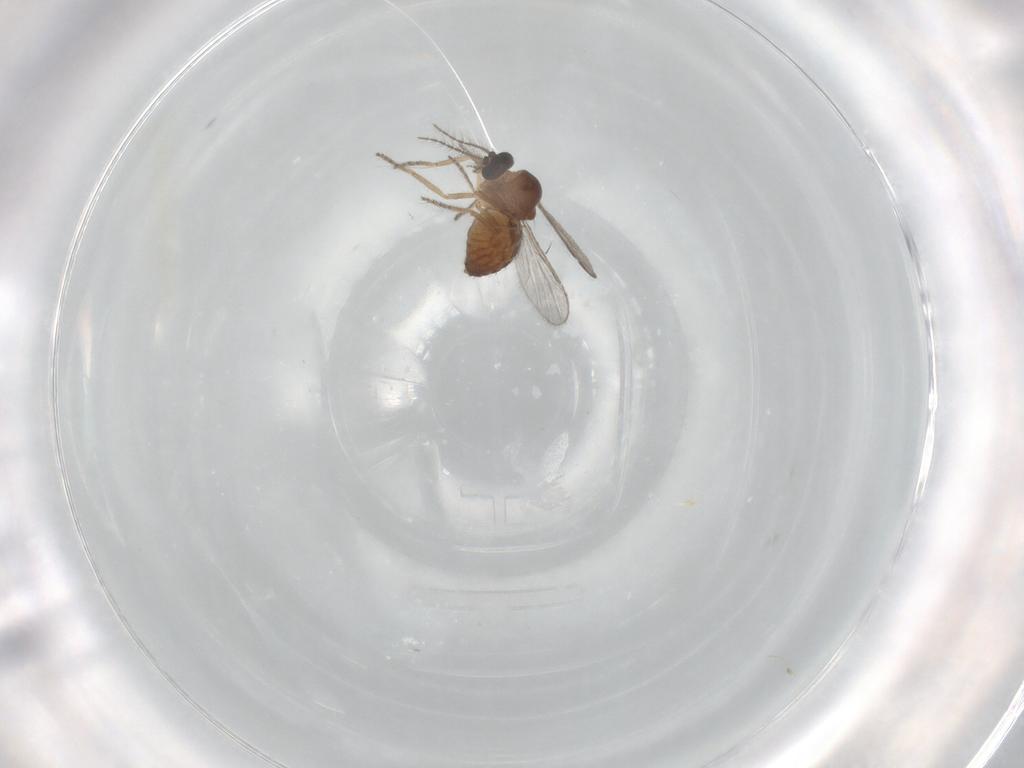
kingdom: Animalia
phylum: Arthropoda
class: Insecta
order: Diptera
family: Ceratopogonidae
